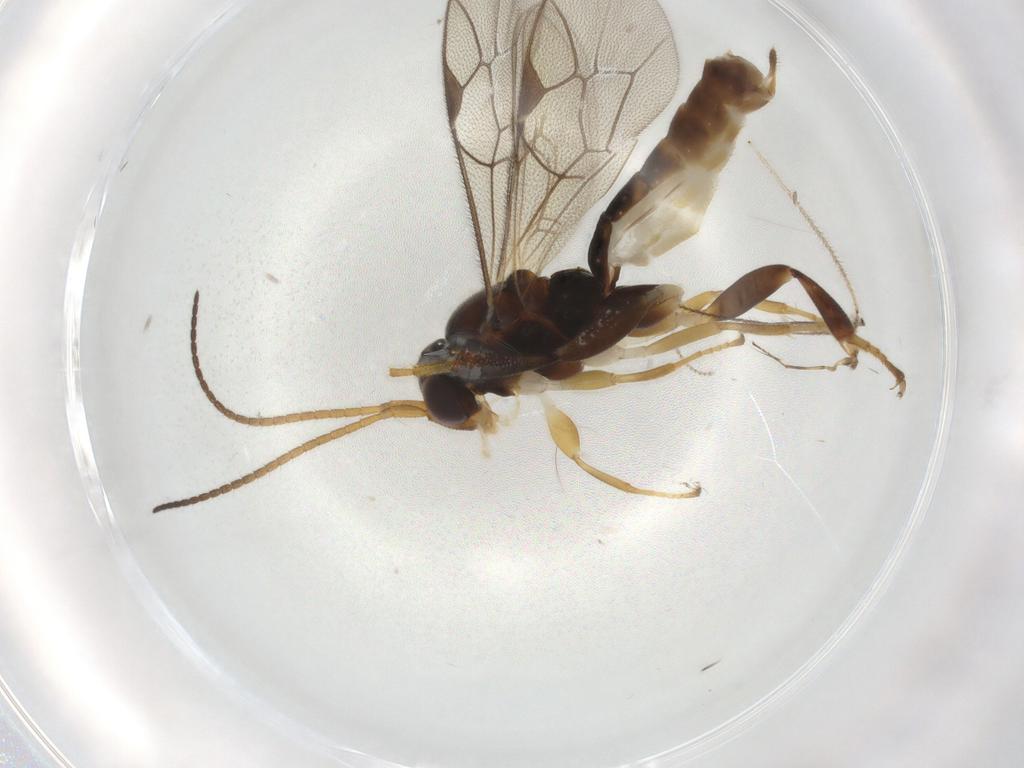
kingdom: Animalia
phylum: Arthropoda
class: Insecta
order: Hymenoptera
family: Ichneumonidae
